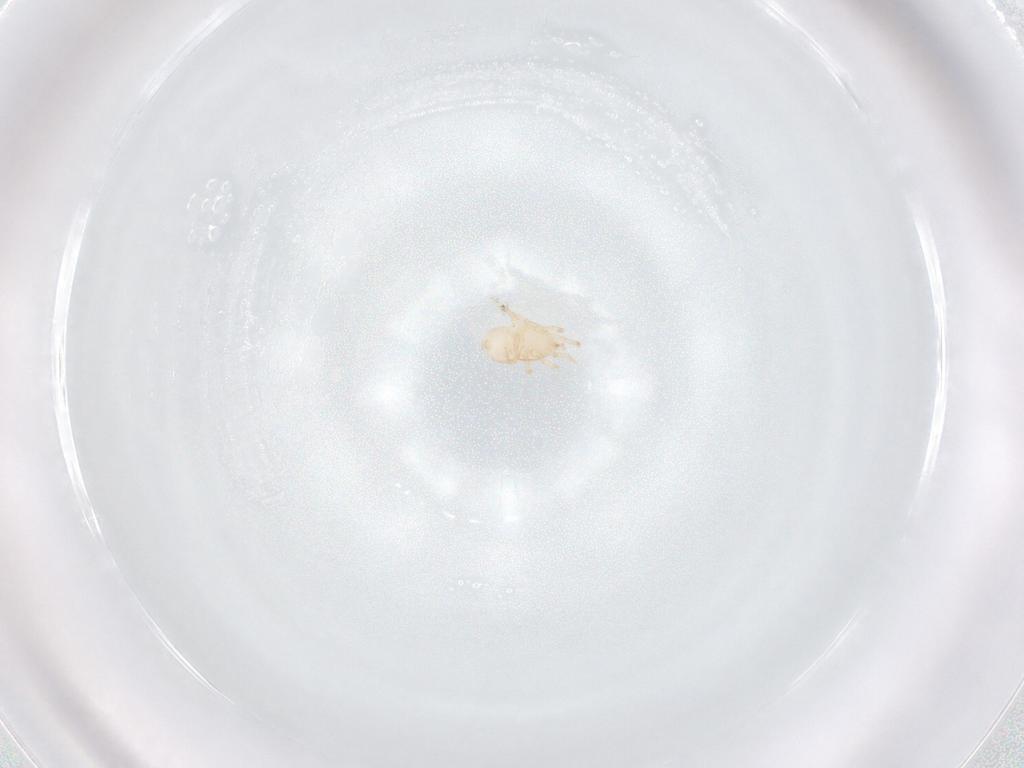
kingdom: Animalia
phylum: Arthropoda
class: Arachnida
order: Mesostigmata
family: Melicharidae
